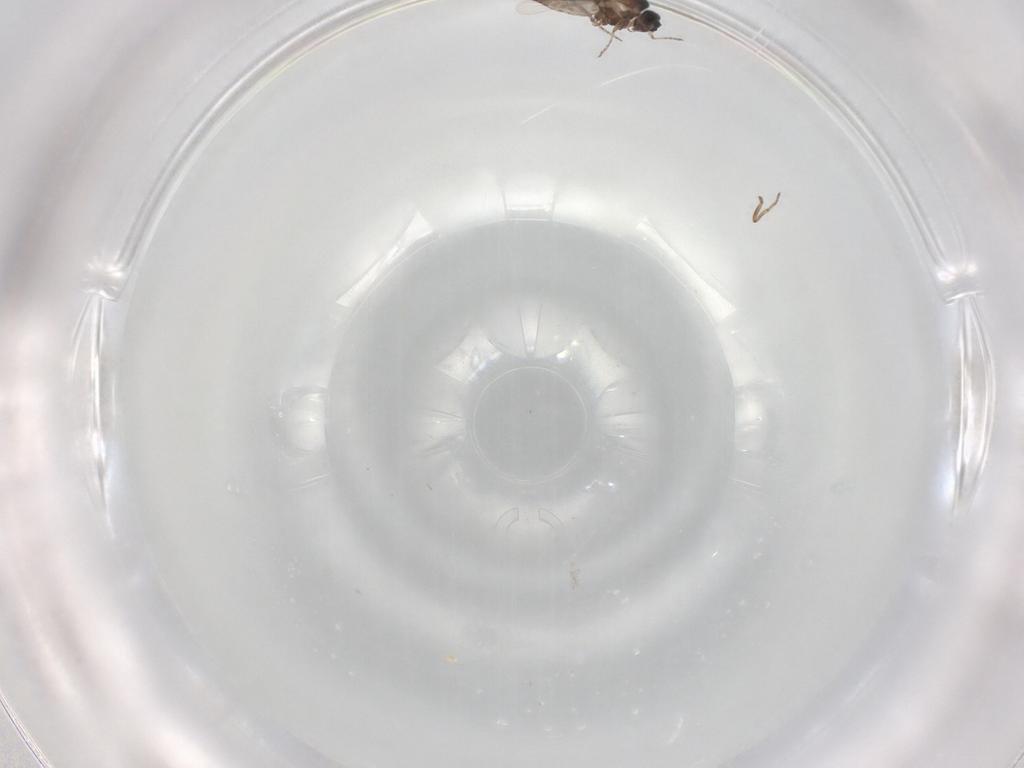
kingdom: Animalia
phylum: Arthropoda
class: Insecta
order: Diptera
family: Ceratopogonidae
